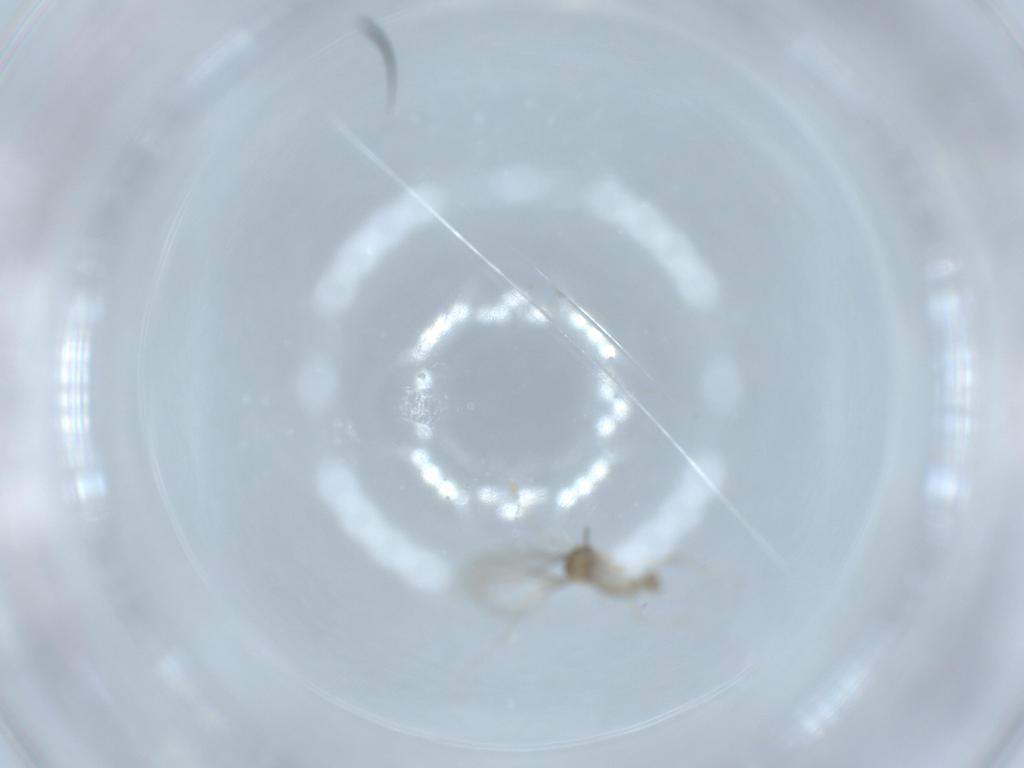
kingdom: Animalia
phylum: Arthropoda
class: Insecta
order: Diptera
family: Cecidomyiidae
